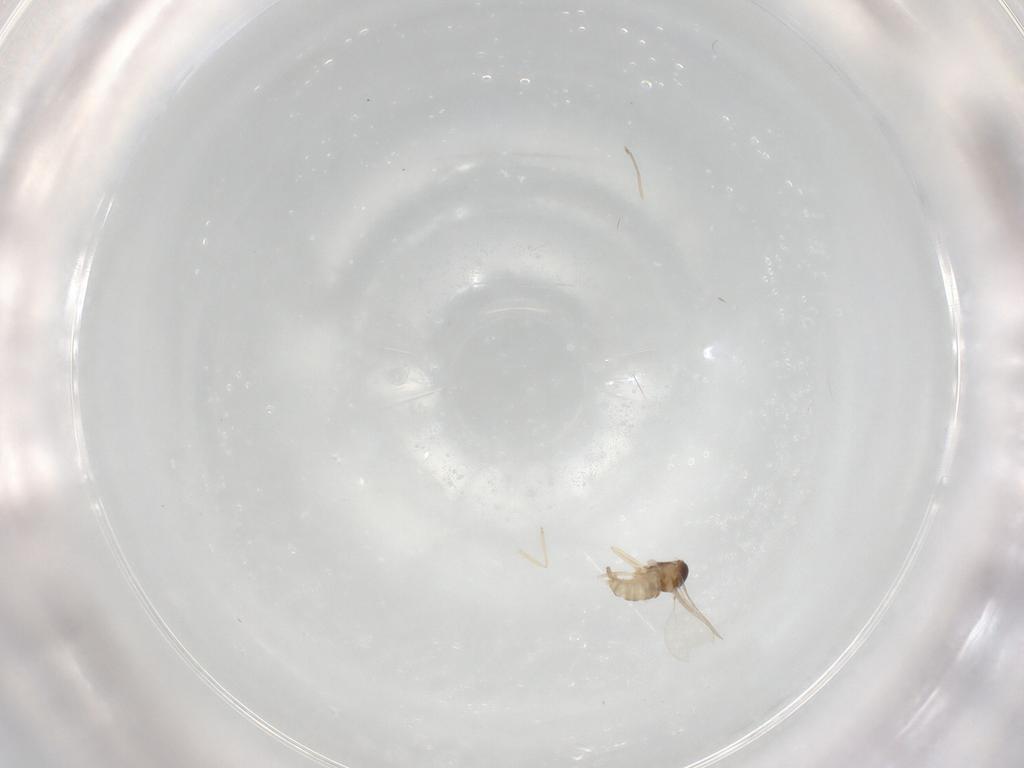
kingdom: Animalia
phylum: Arthropoda
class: Insecta
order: Diptera
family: Cecidomyiidae
